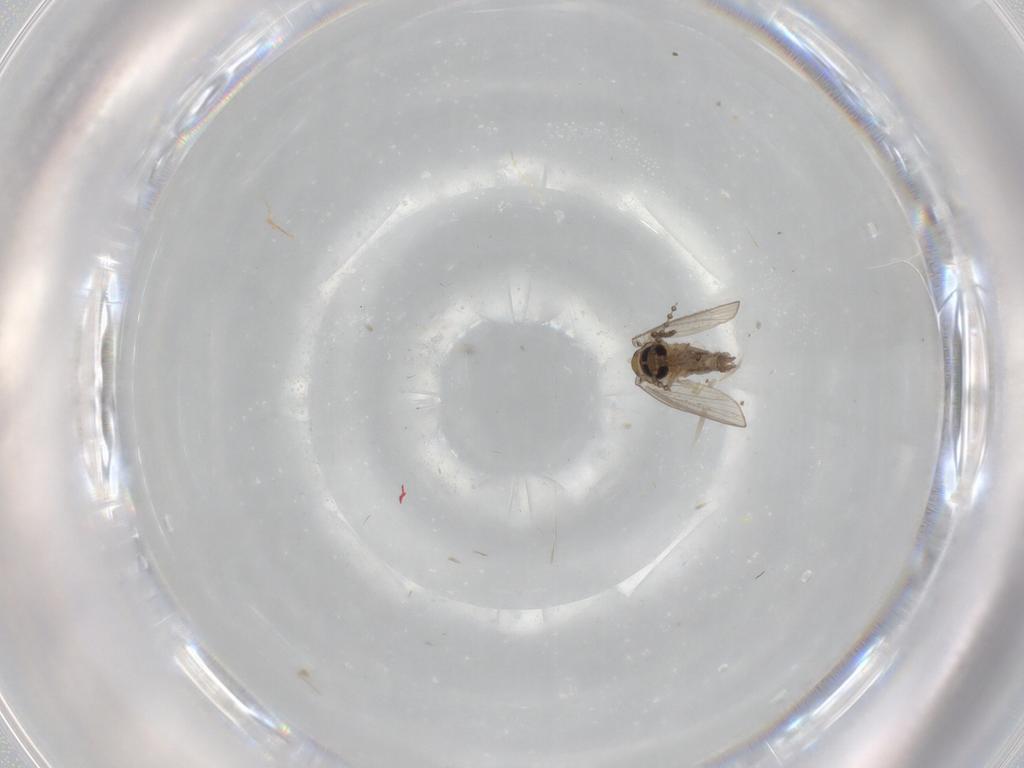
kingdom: Animalia
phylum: Arthropoda
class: Insecta
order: Diptera
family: Psychodidae
